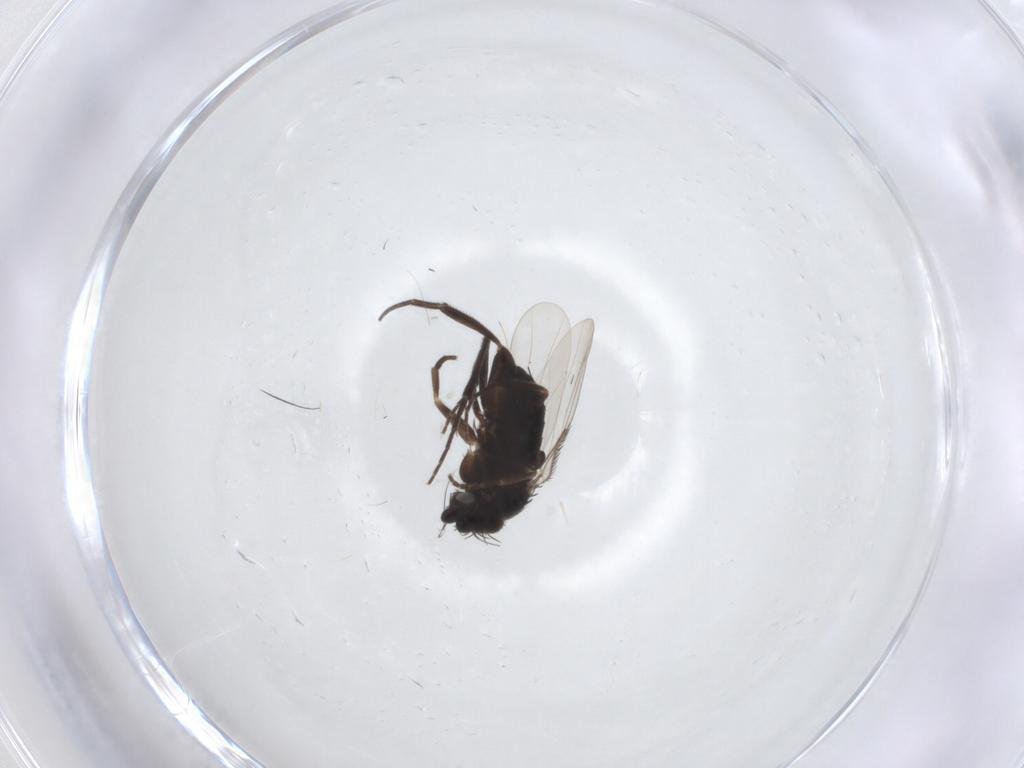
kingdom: Animalia
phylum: Arthropoda
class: Insecta
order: Diptera
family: Phoridae
